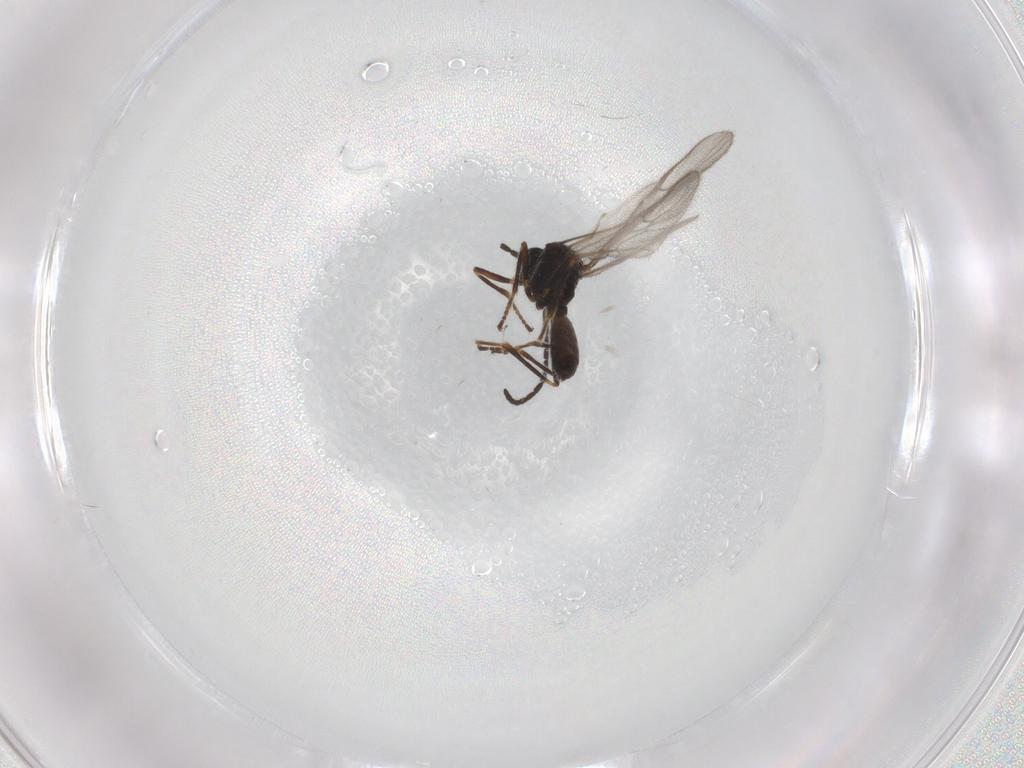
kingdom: Animalia
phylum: Arthropoda
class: Insecta
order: Hymenoptera
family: Braconidae
